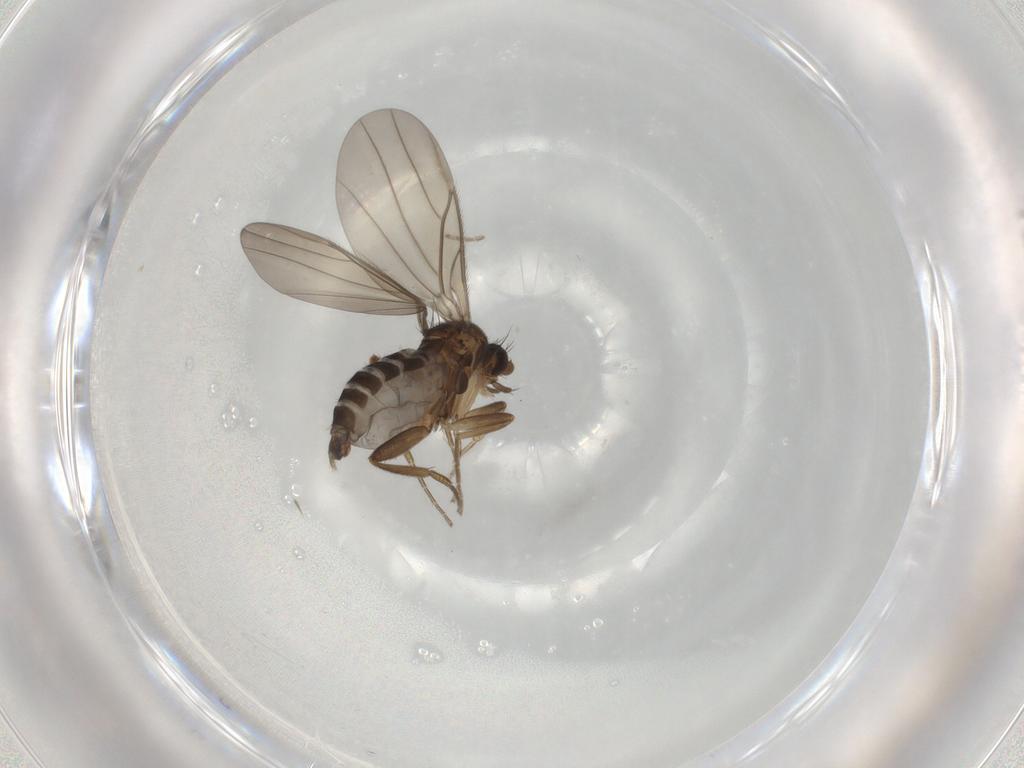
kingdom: Animalia
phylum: Arthropoda
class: Insecta
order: Diptera
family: Phoridae
